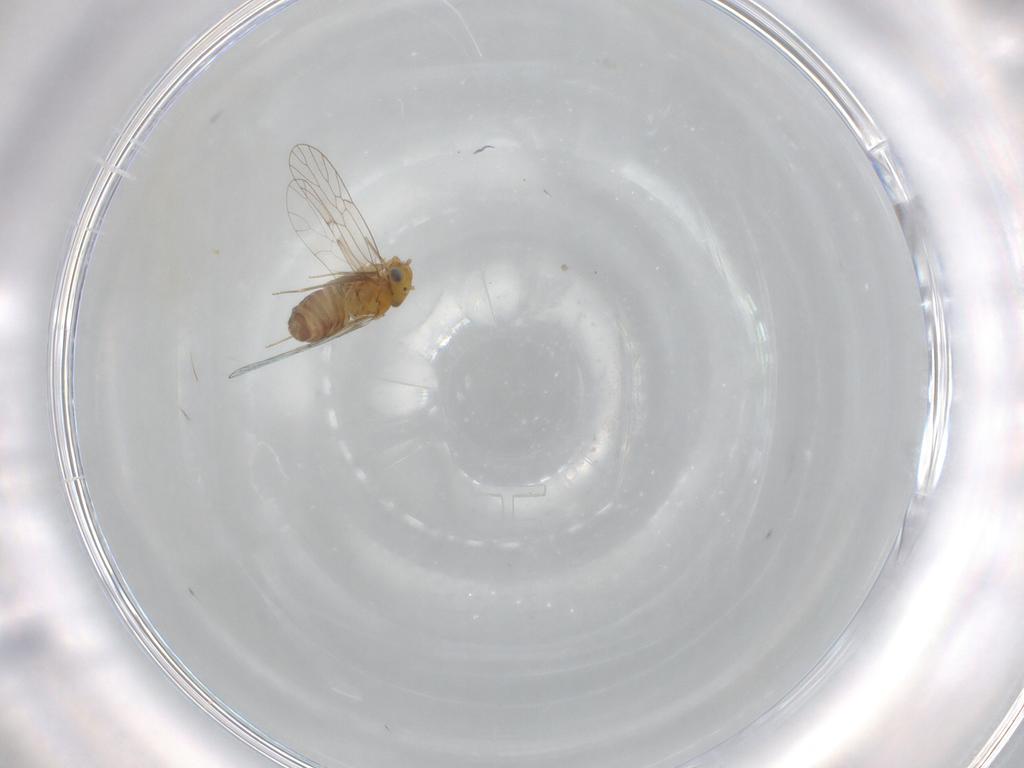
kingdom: Animalia
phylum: Arthropoda
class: Insecta
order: Psocodea
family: Prionoglarididae
